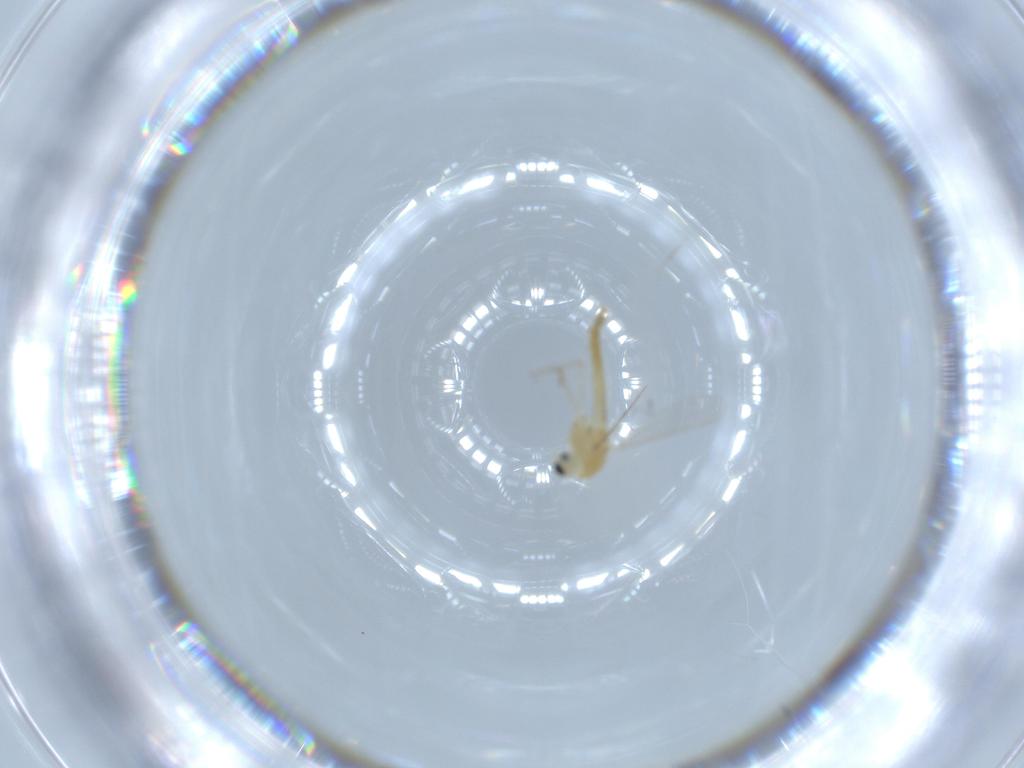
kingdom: Animalia
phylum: Arthropoda
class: Insecta
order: Diptera
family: Chironomidae
